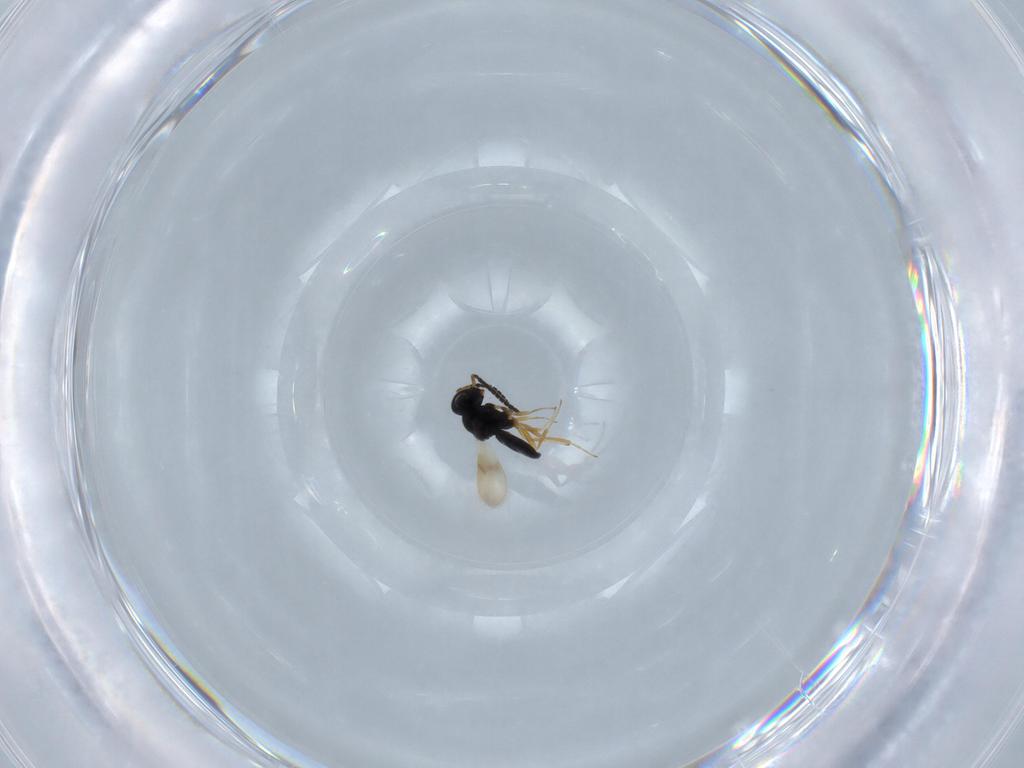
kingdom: Animalia
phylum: Arthropoda
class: Insecta
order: Hymenoptera
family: Scelionidae
